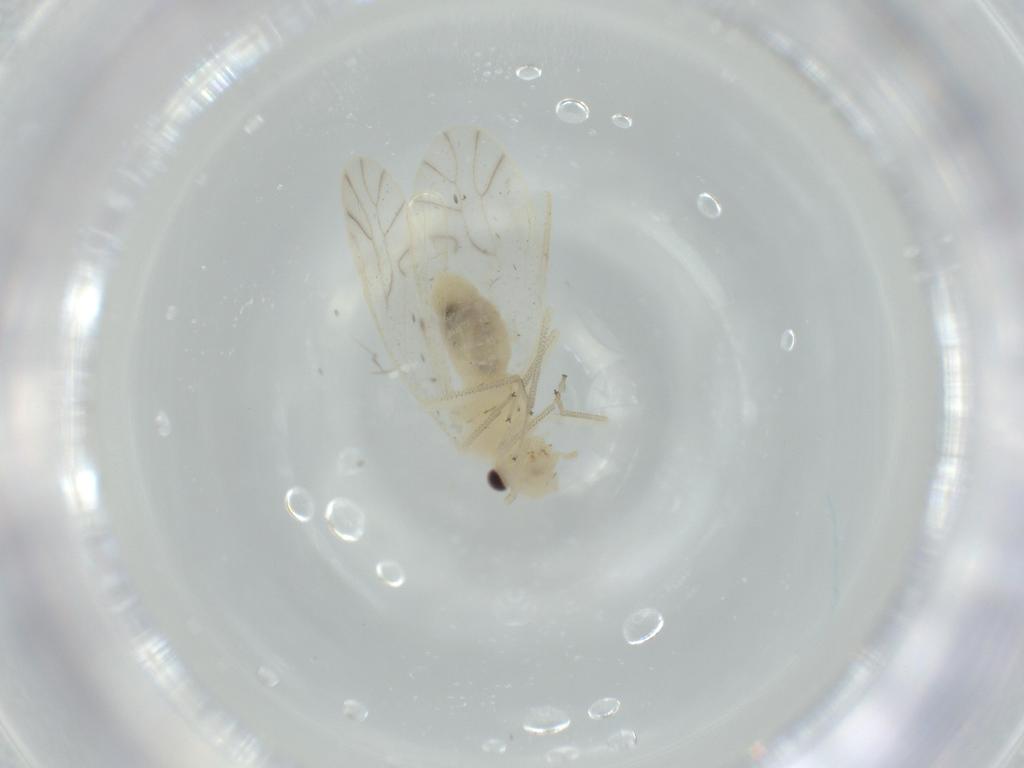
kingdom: Animalia
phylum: Arthropoda
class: Insecta
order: Psocodea
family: Caeciliusidae
